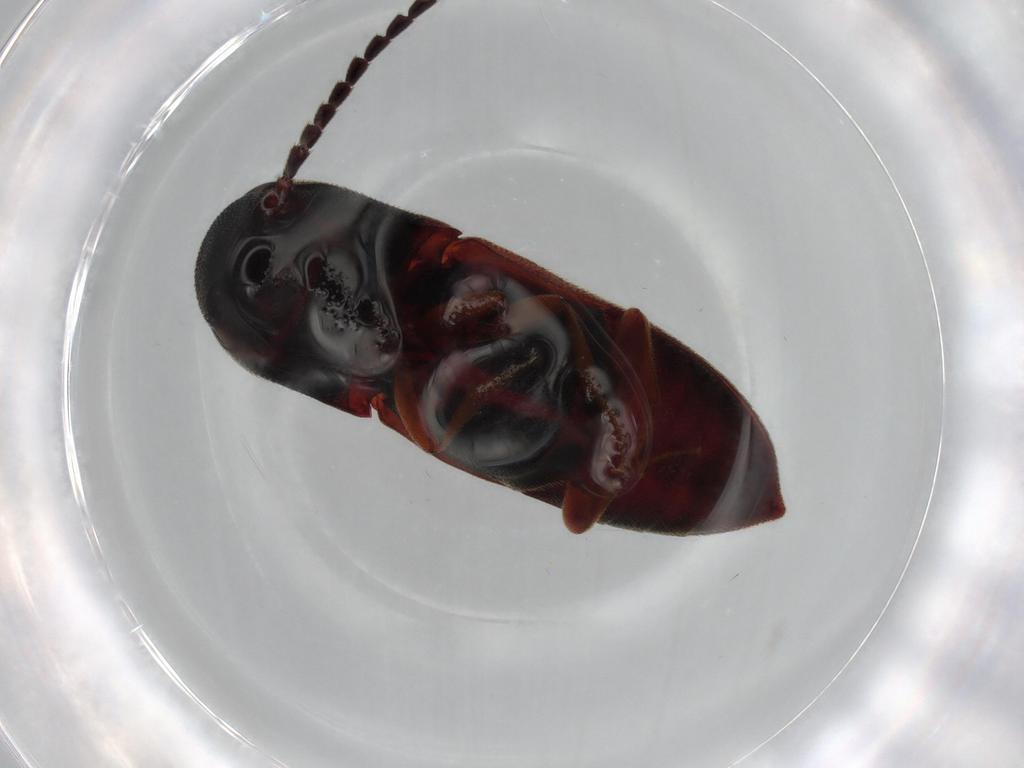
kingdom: Animalia
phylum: Arthropoda
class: Insecta
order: Coleoptera
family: Eucnemidae
